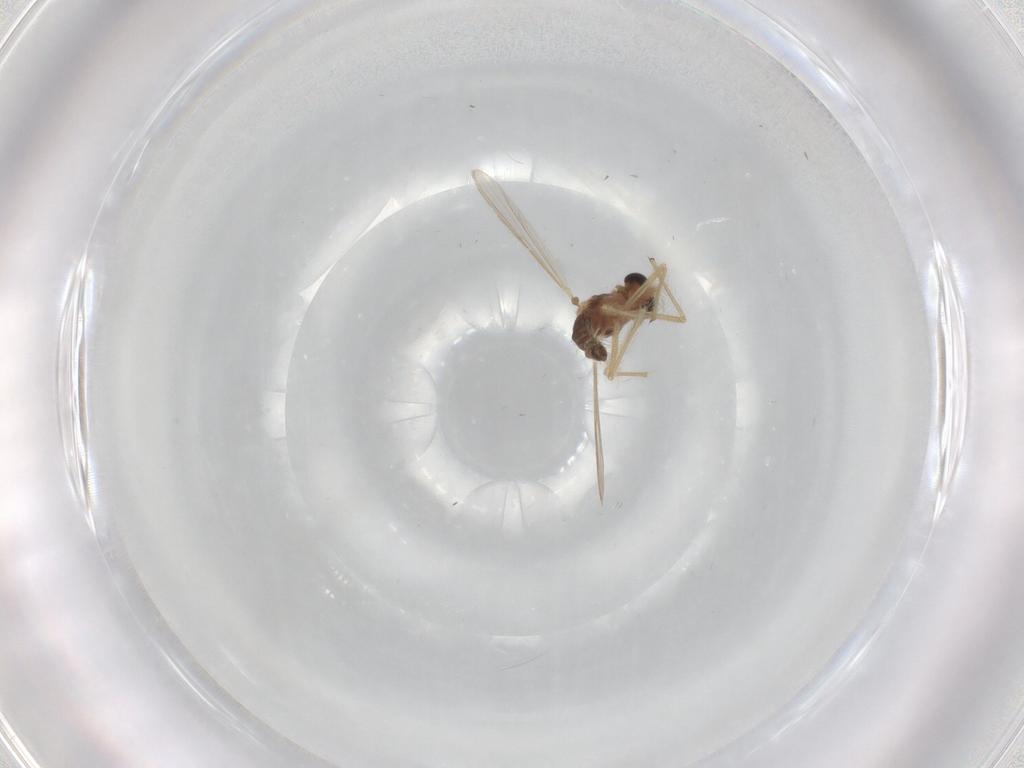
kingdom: Animalia
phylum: Arthropoda
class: Insecta
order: Diptera
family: Chironomidae
